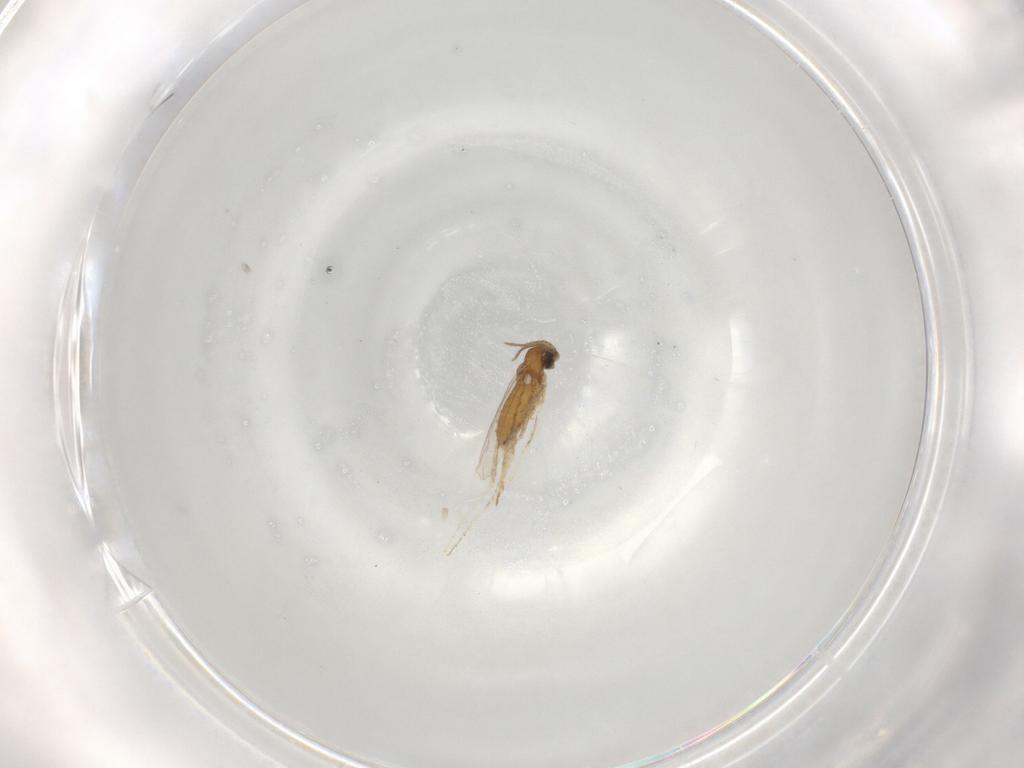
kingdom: Animalia
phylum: Arthropoda
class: Insecta
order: Diptera
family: Cecidomyiidae
